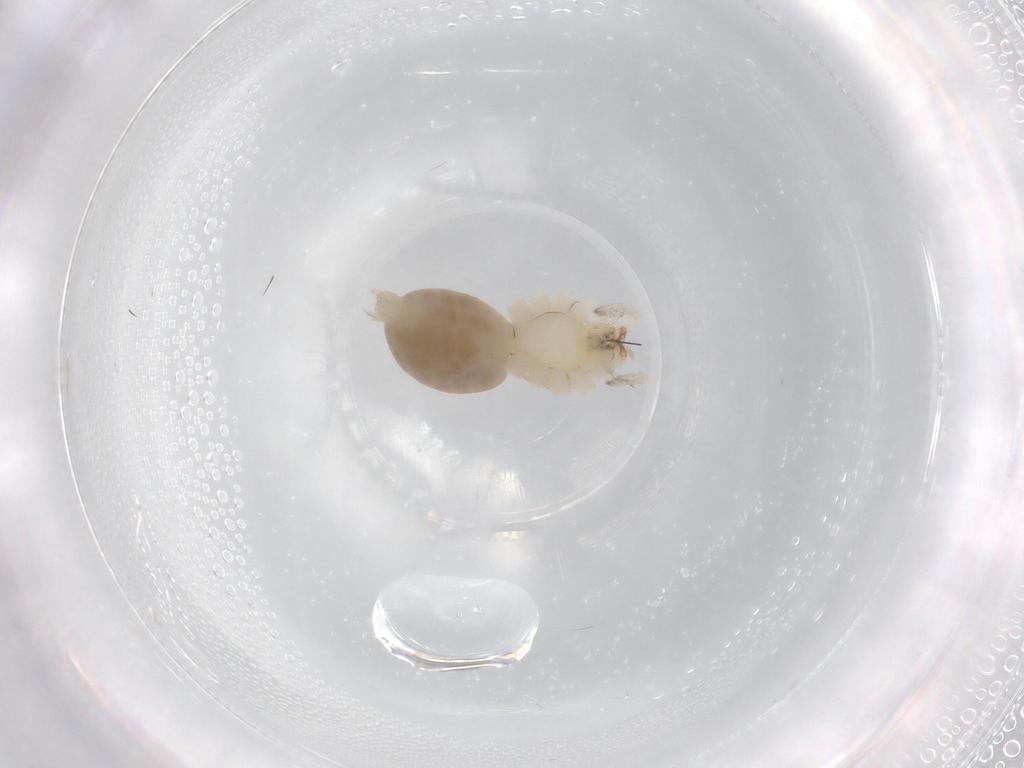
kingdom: Animalia
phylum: Arthropoda
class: Arachnida
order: Araneae
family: Anyphaenidae
